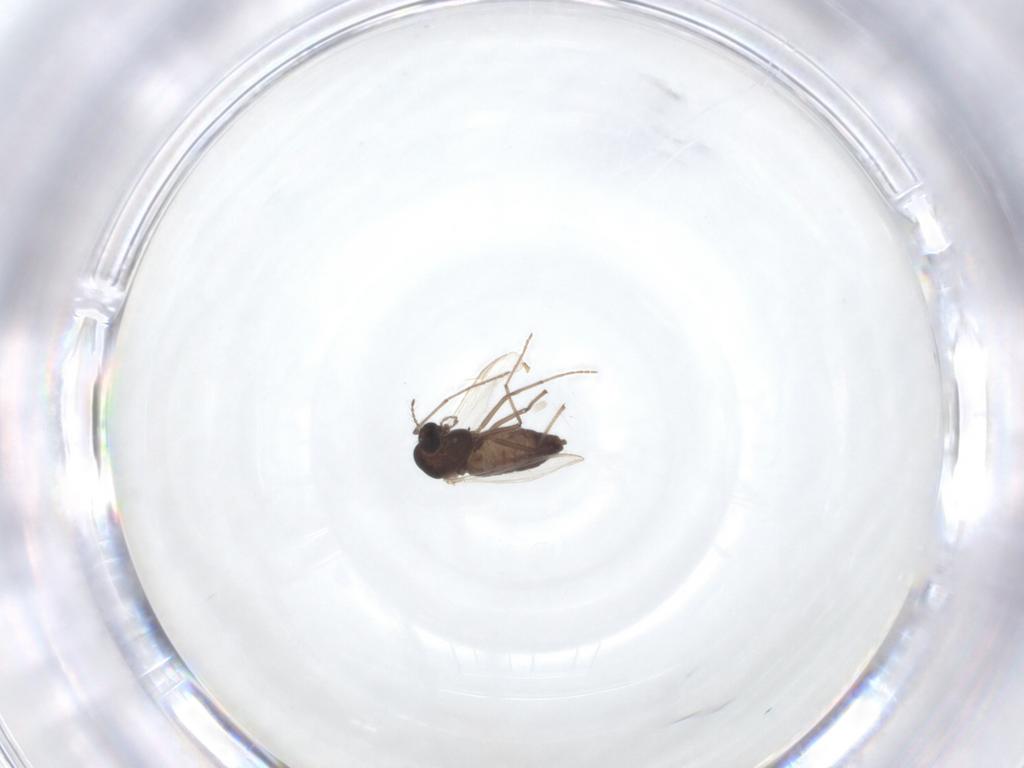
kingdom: Animalia
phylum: Arthropoda
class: Insecta
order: Diptera
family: Mycetophilidae
